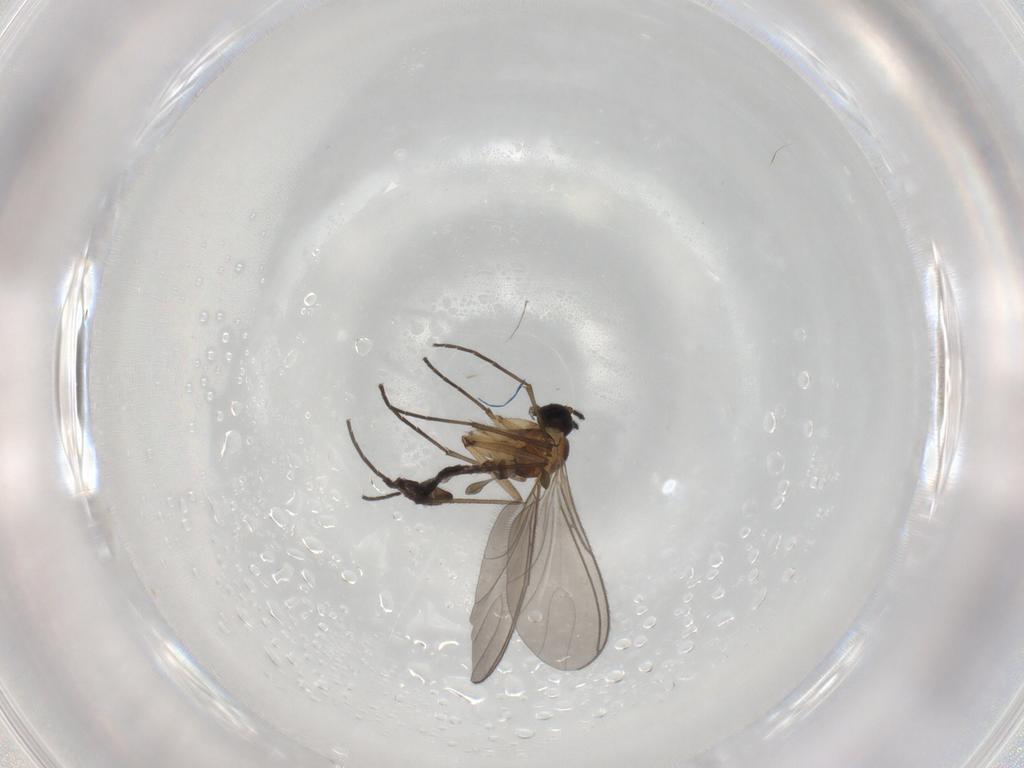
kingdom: Animalia
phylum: Arthropoda
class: Insecta
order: Diptera
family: Sciaridae
